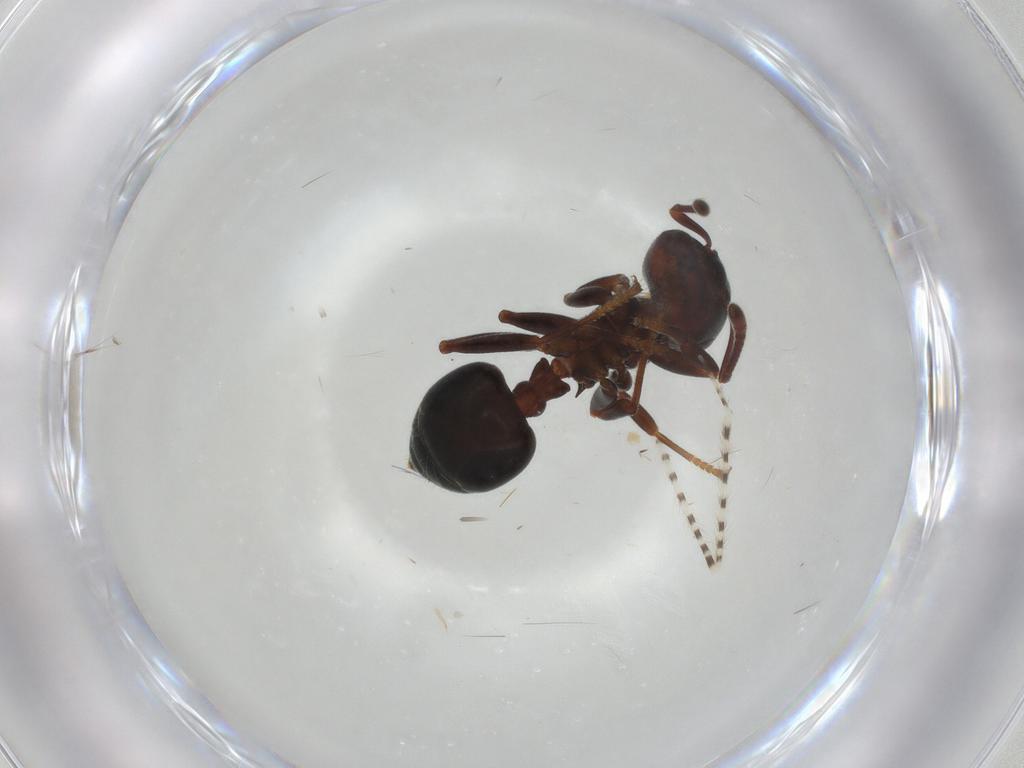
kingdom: Animalia
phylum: Arthropoda
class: Insecta
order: Hymenoptera
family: Formicidae
